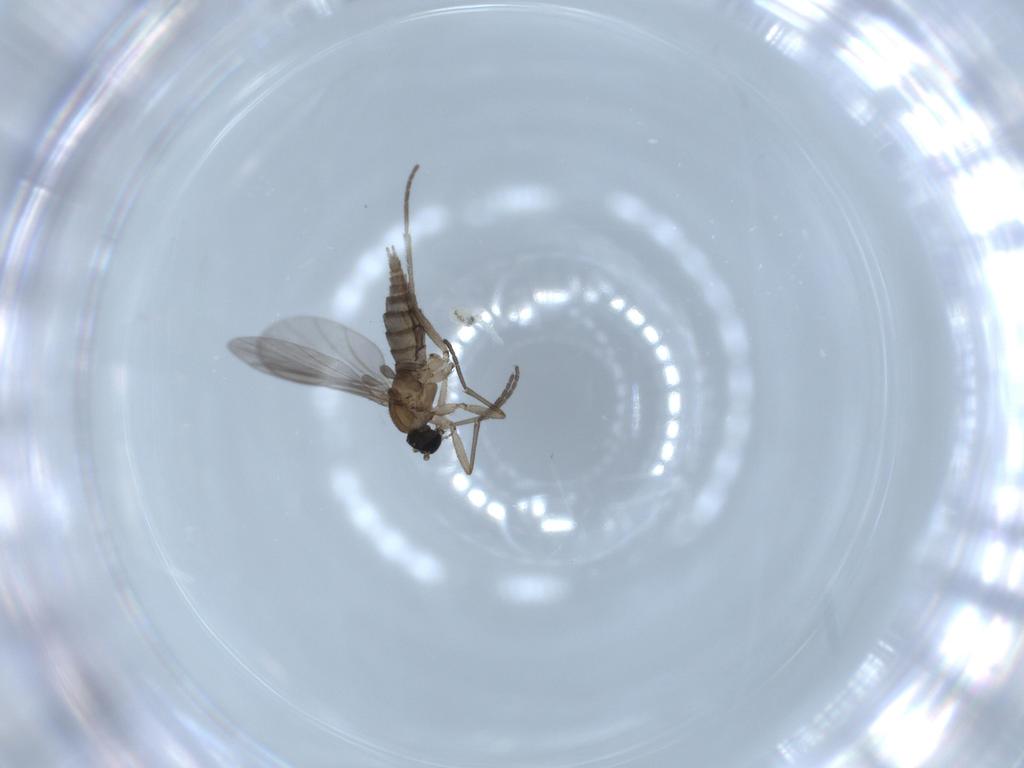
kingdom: Animalia
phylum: Arthropoda
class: Insecta
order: Diptera
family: Sciaridae
